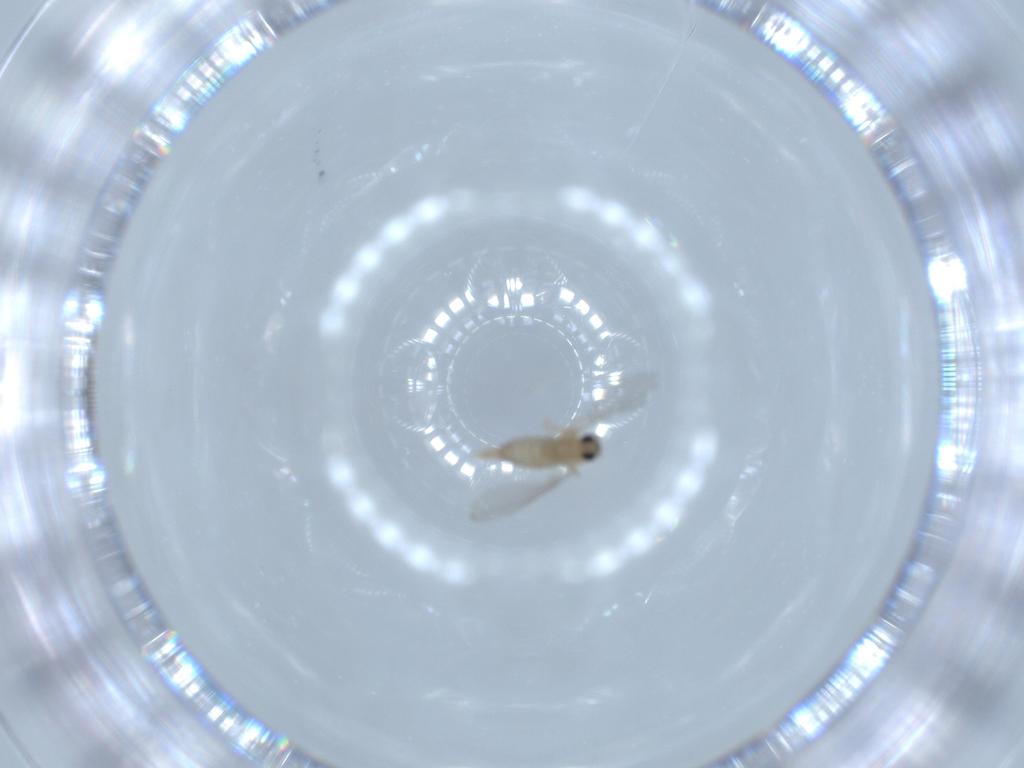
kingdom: Animalia
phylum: Arthropoda
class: Insecta
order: Diptera
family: Cecidomyiidae
